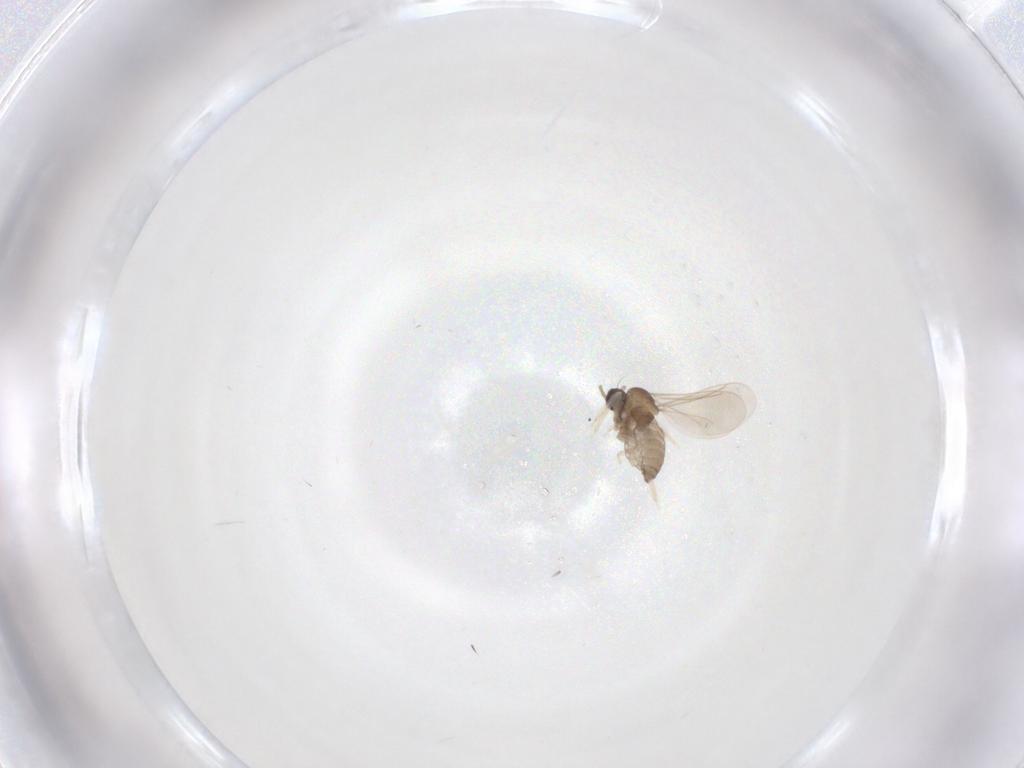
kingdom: Animalia
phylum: Arthropoda
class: Insecta
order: Diptera
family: Cecidomyiidae
